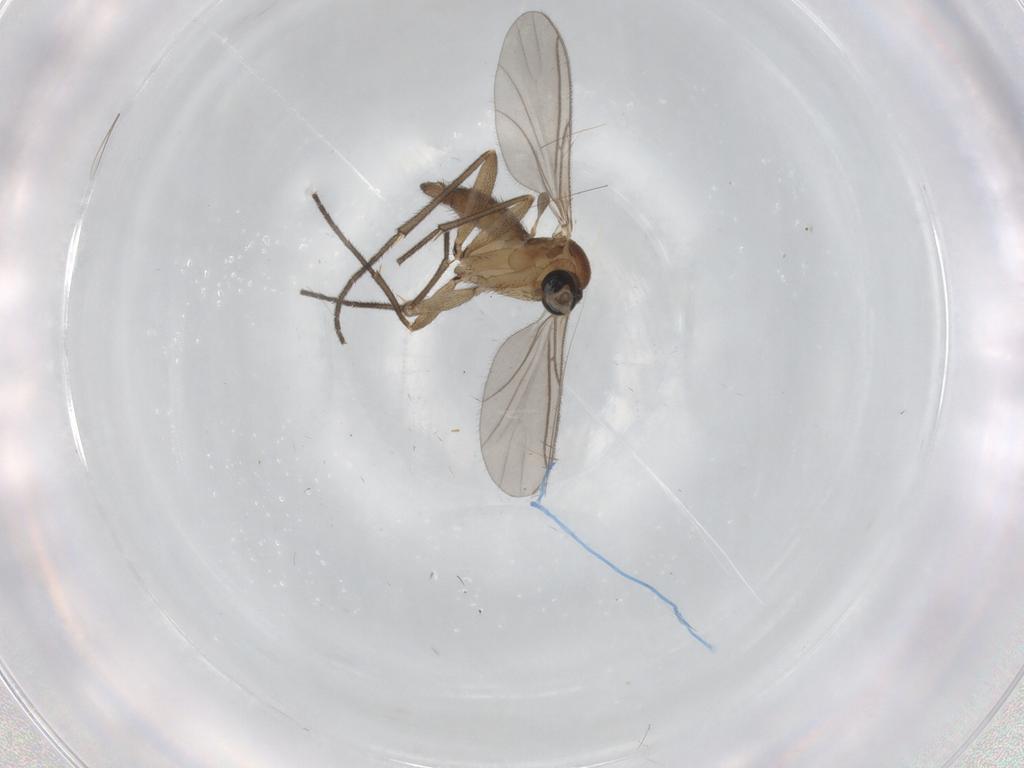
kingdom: Animalia
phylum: Arthropoda
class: Insecta
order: Diptera
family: Sciaridae
